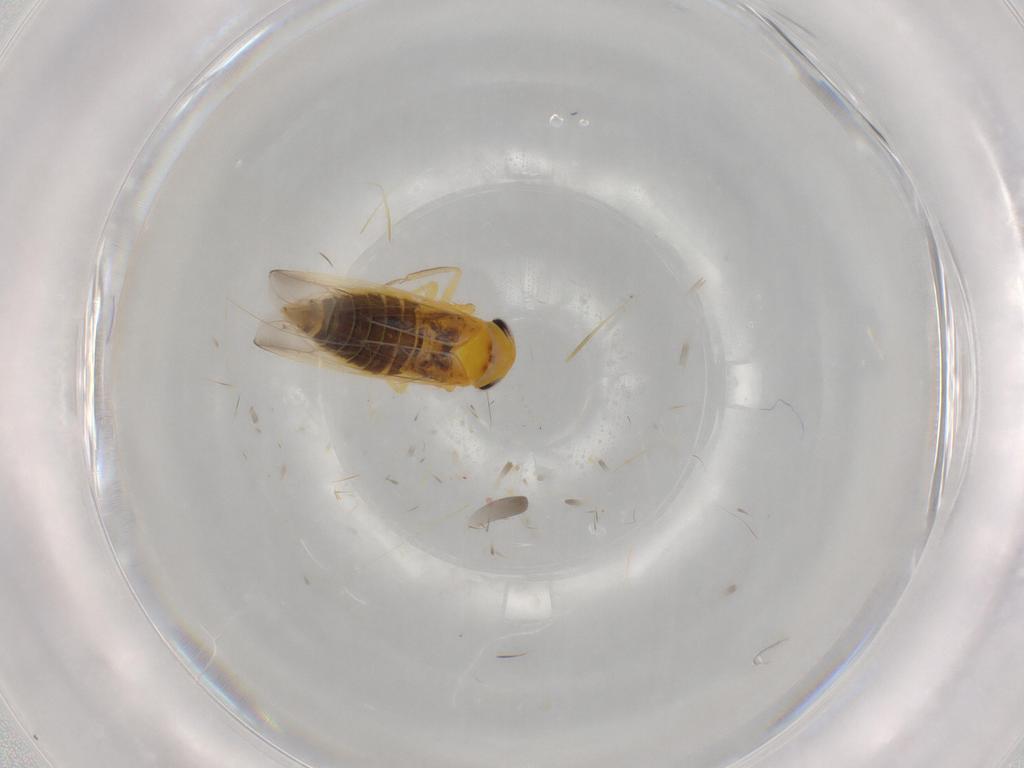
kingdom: Animalia
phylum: Arthropoda
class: Insecta
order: Hemiptera
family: Cicadellidae
